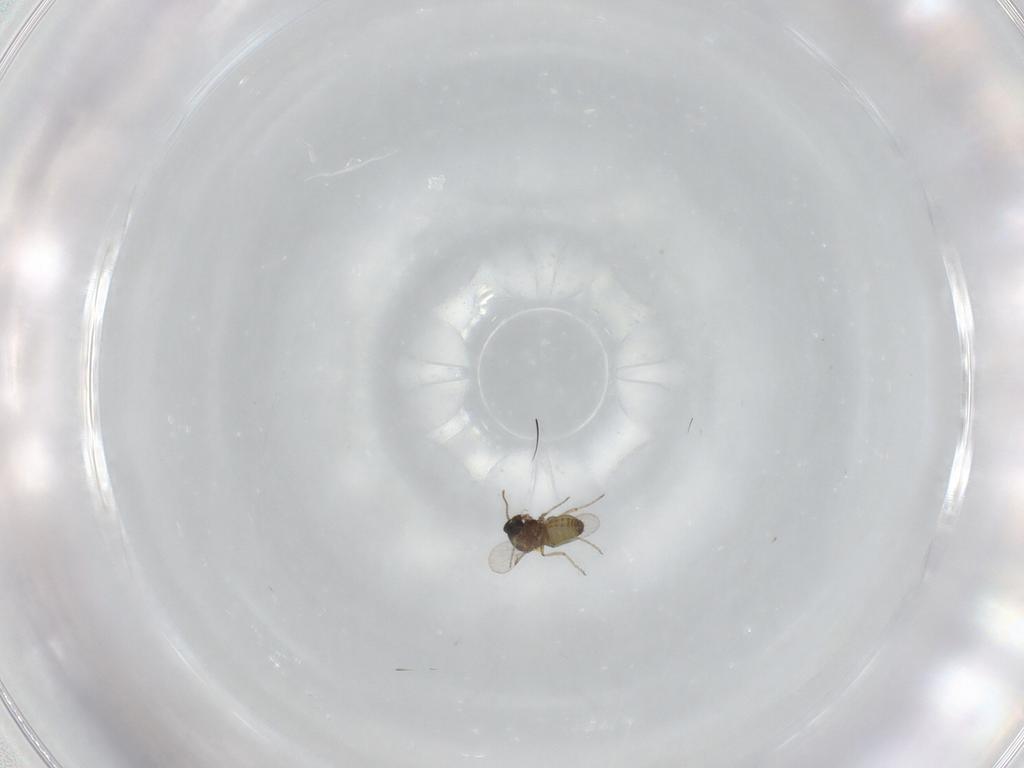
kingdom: Animalia
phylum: Arthropoda
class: Insecta
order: Diptera
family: Ceratopogonidae
